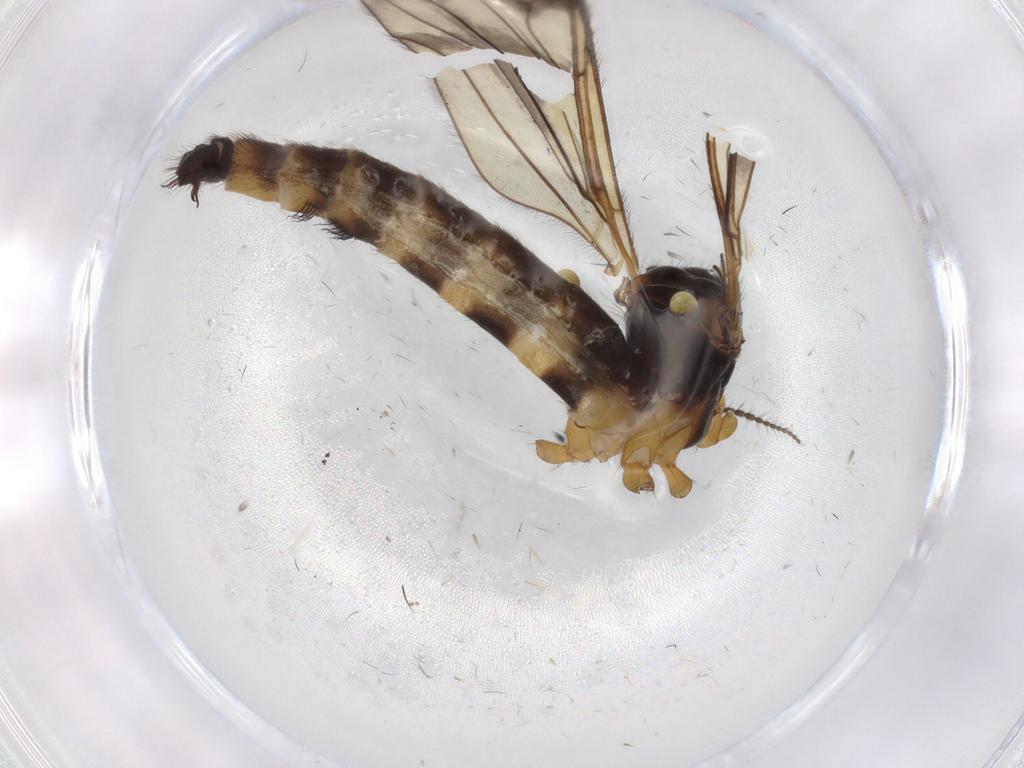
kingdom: Animalia
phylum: Arthropoda
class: Insecta
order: Diptera
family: Limoniidae
